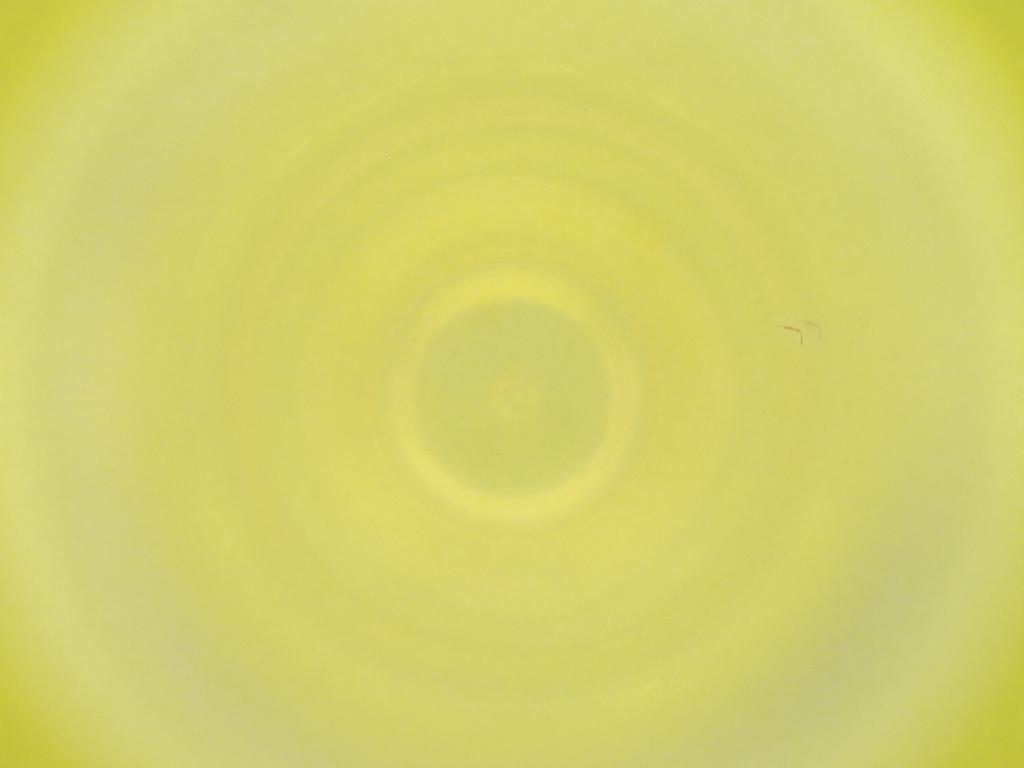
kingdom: Animalia
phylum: Arthropoda
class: Insecta
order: Diptera
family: Cecidomyiidae
